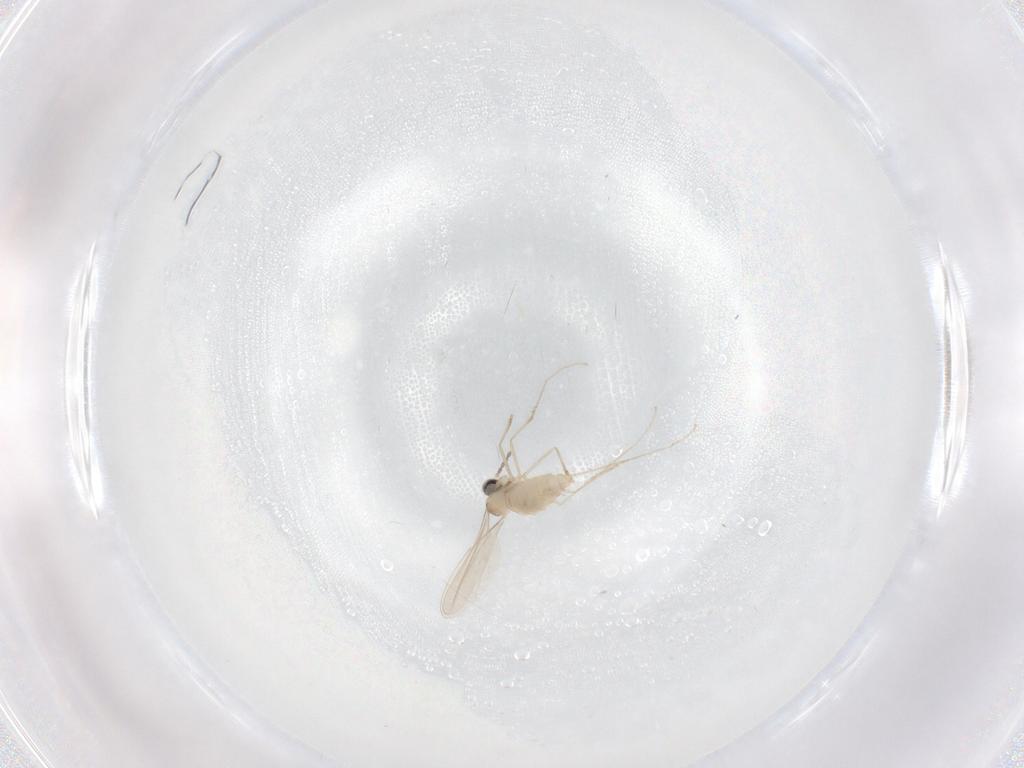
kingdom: Animalia
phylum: Arthropoda
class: Insecta
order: Diptera
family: Cecidomyiidae
